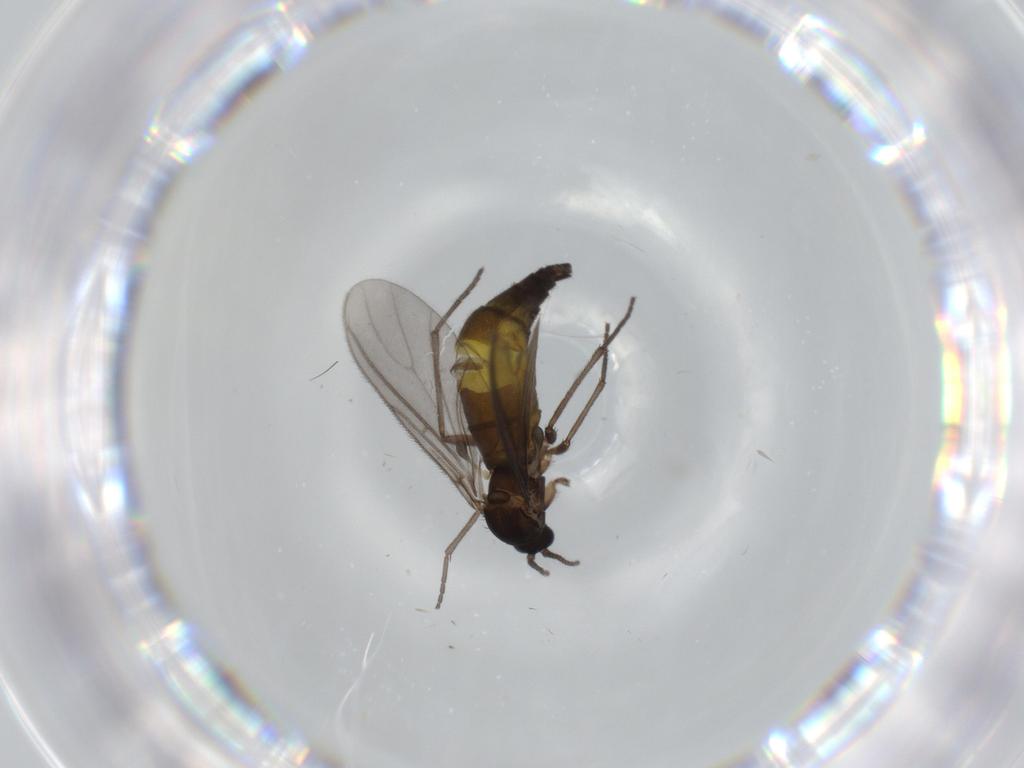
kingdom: Animalia
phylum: Arthropoda
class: Insecta
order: Diptera
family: Sciaridae
